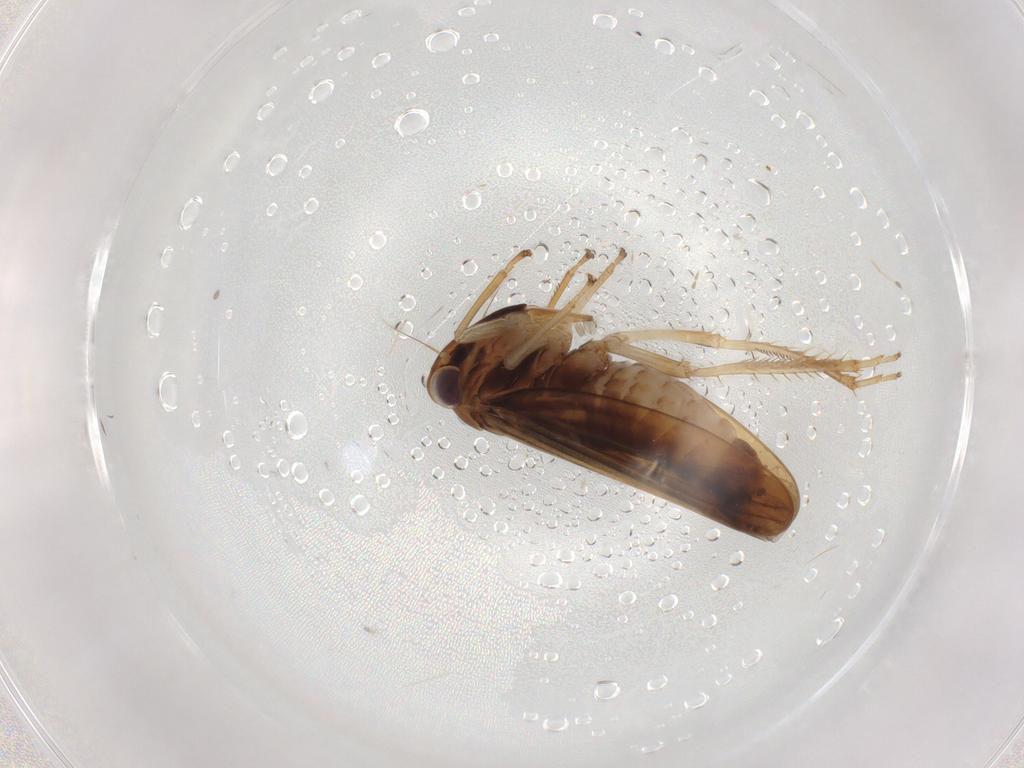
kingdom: Animalia
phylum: Arthropoda
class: Insecta
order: Hemiptera
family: Cicadellidae
